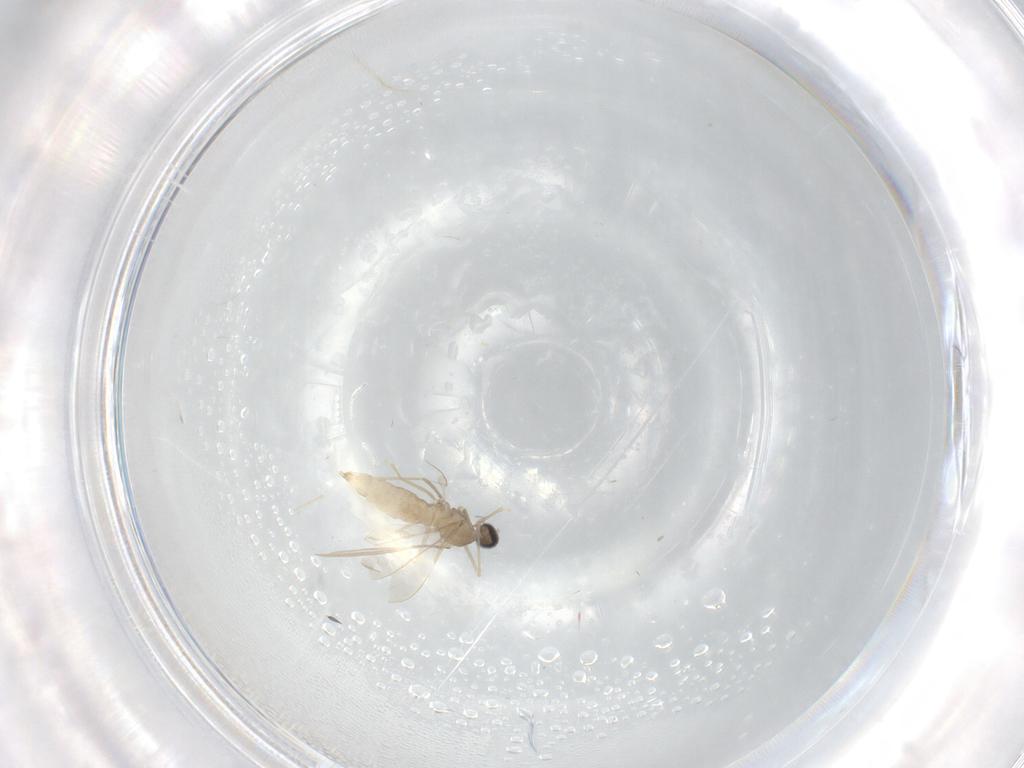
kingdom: Animalia
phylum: Arthropoda
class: Insecta
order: Diptera
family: Cecidomyiidae
